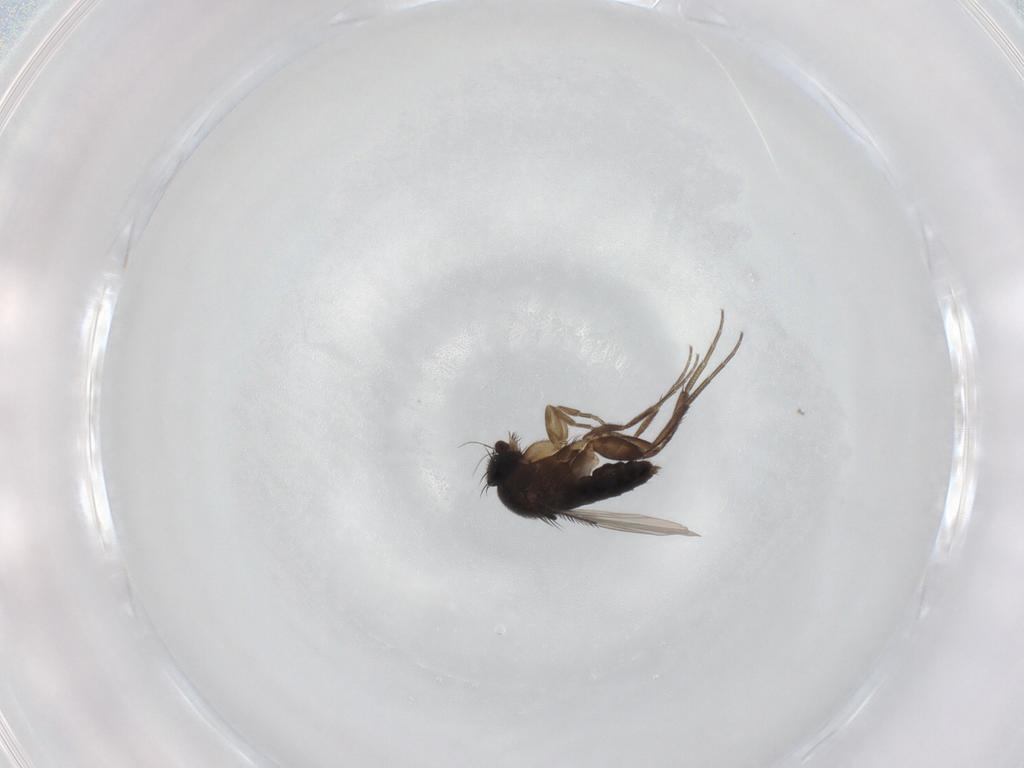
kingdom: Animalia
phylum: Arthropoda
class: Insecta
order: Diptera
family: Phoridae
